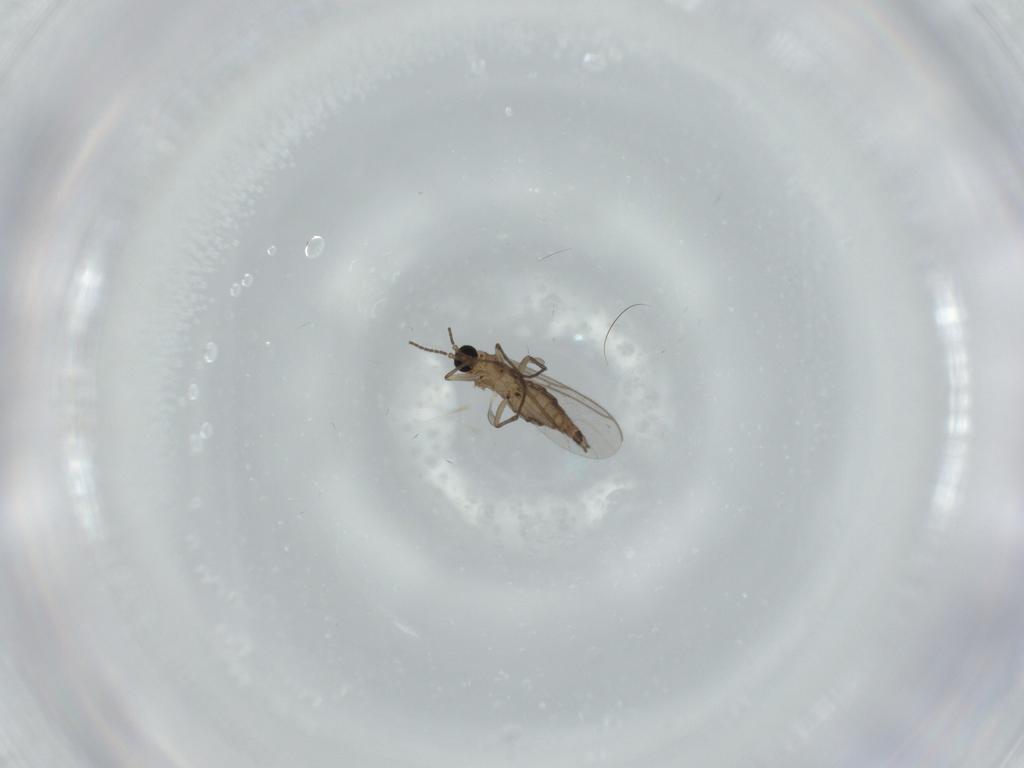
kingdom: Animalia
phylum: Arthropoda
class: Insecta
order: Diptera
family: Sciaridae
